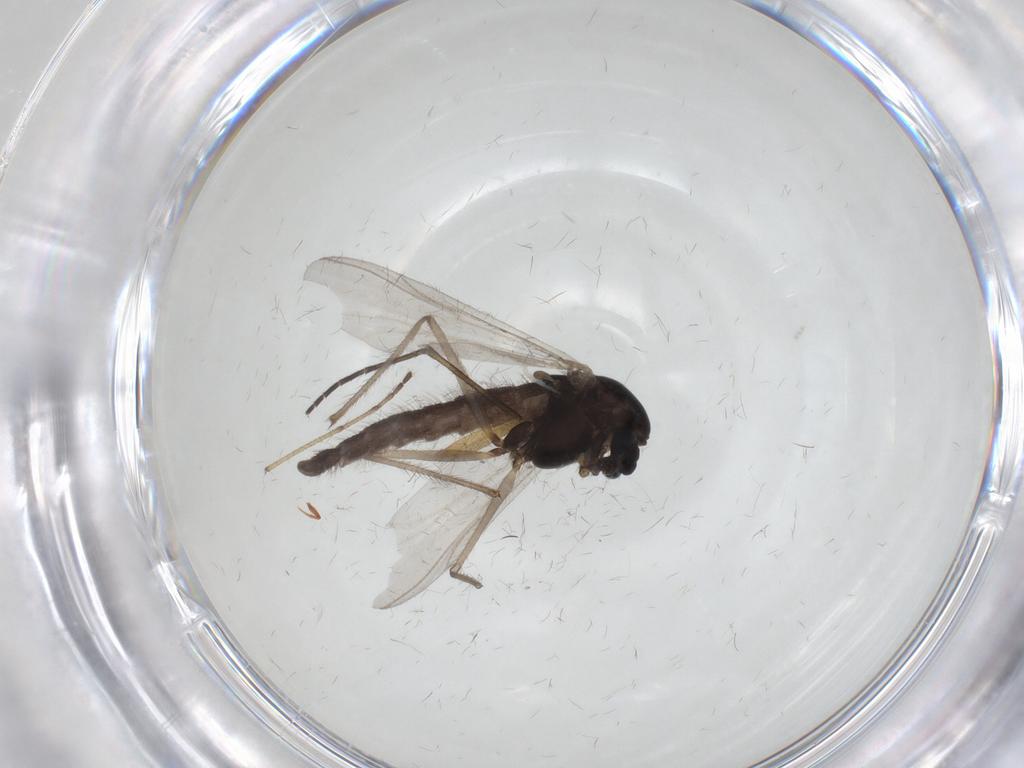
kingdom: Animalia
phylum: Arthropoda
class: Insecta
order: Diptera
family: Sciaridae
